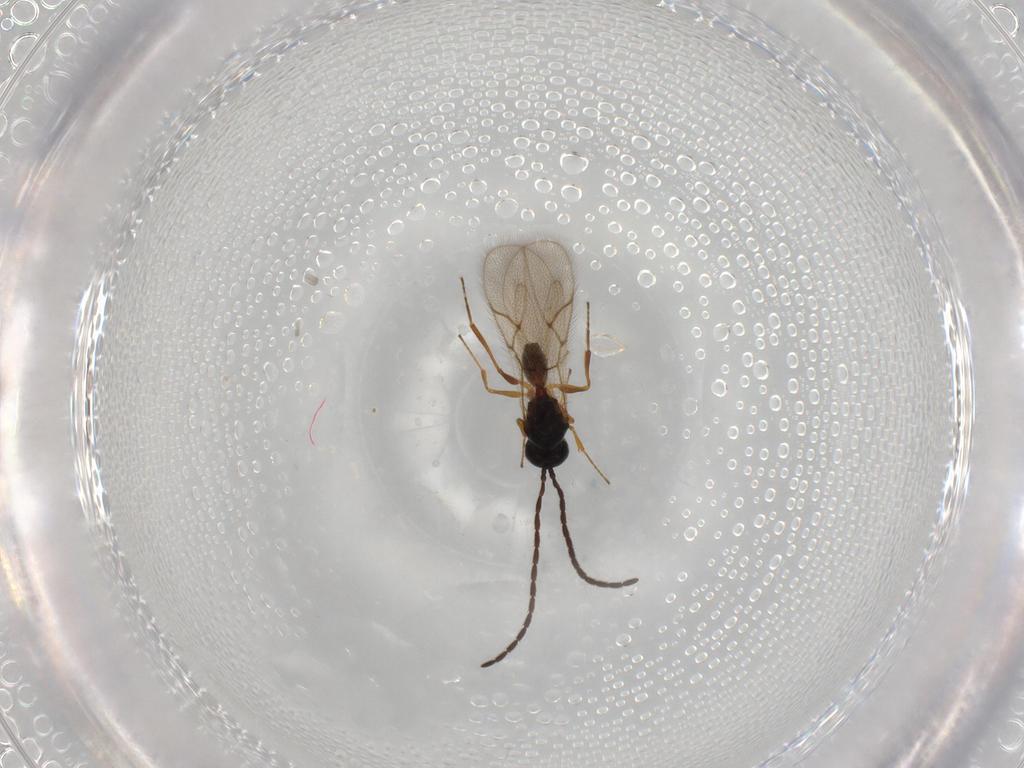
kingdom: Animalia
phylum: Arthropoda
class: Insecta
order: Hymenoptera
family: Figitidae
